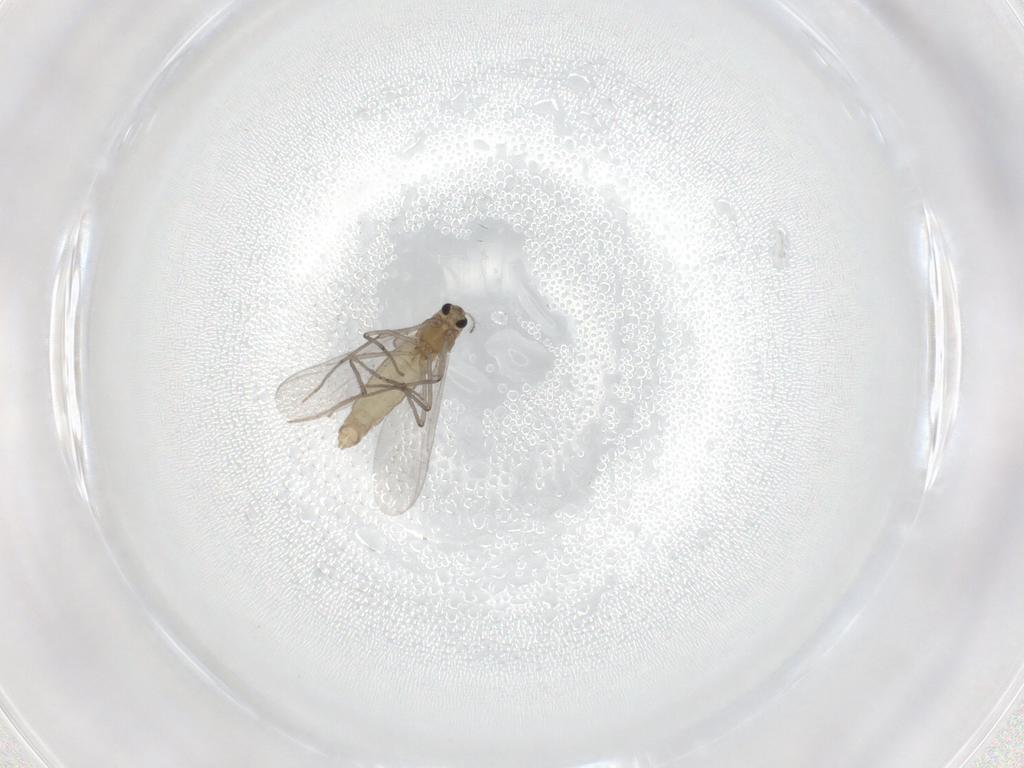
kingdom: Animalia
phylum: Arthropoda
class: Insecta
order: Diptera
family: Chironomidae
